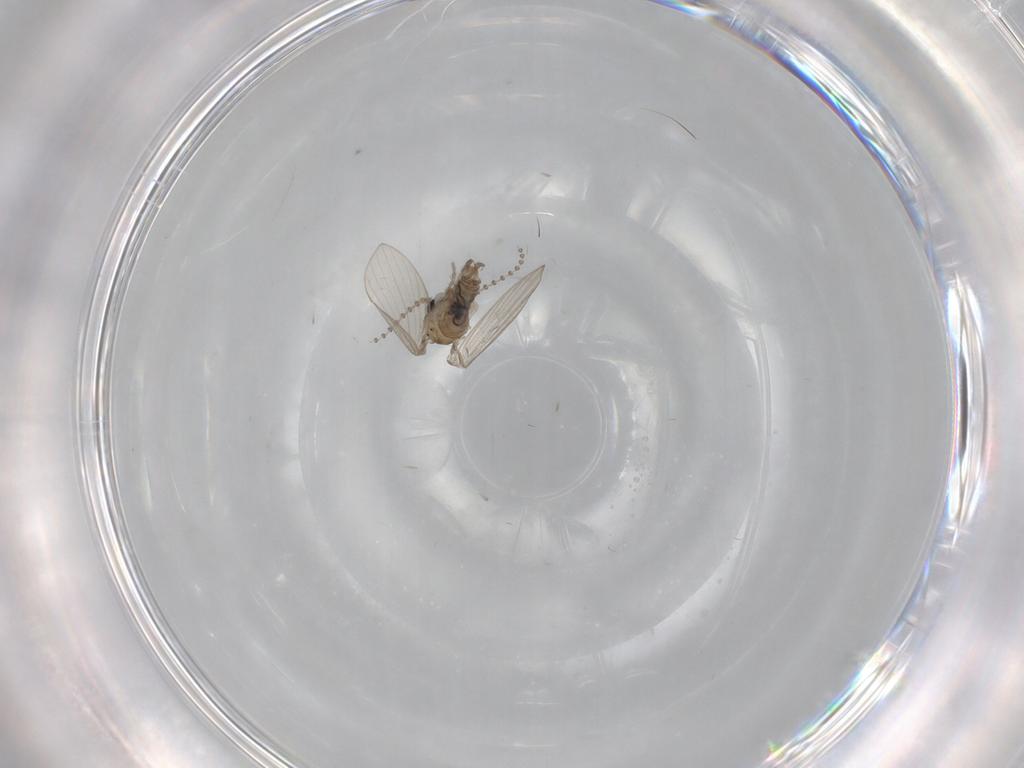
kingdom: Animalia
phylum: Arthropoda
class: Insecta
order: Diptera
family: Psychodidae
